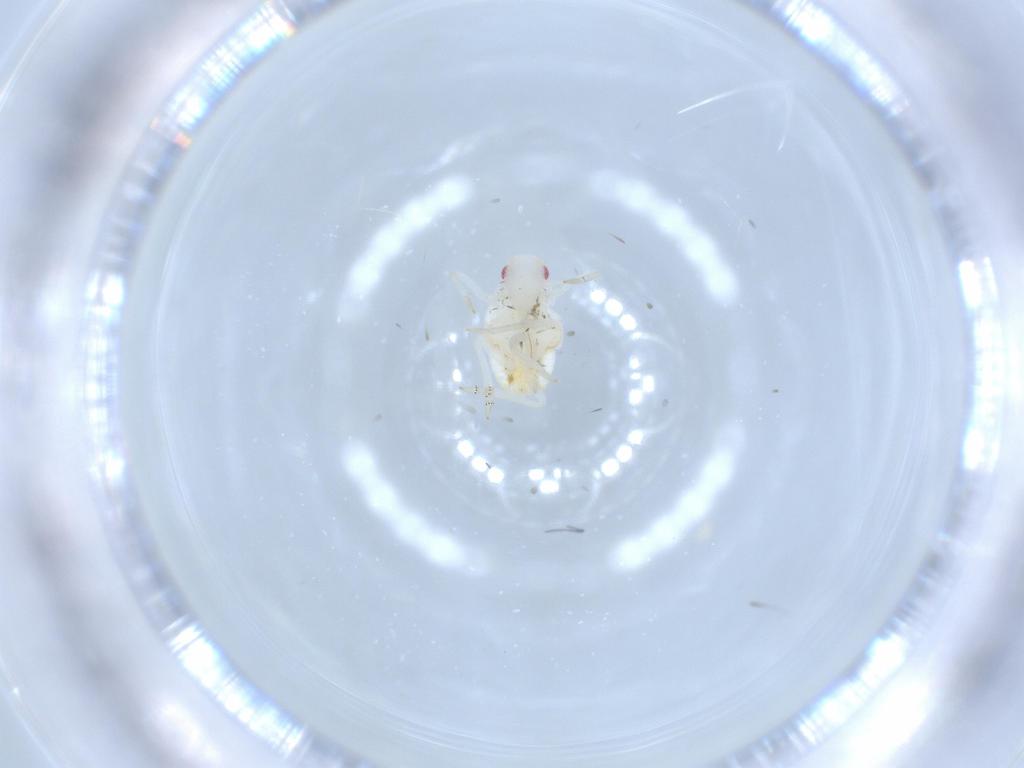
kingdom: Animalia
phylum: Arthropoda
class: Insecta
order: Hemiptera
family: Flatidae
